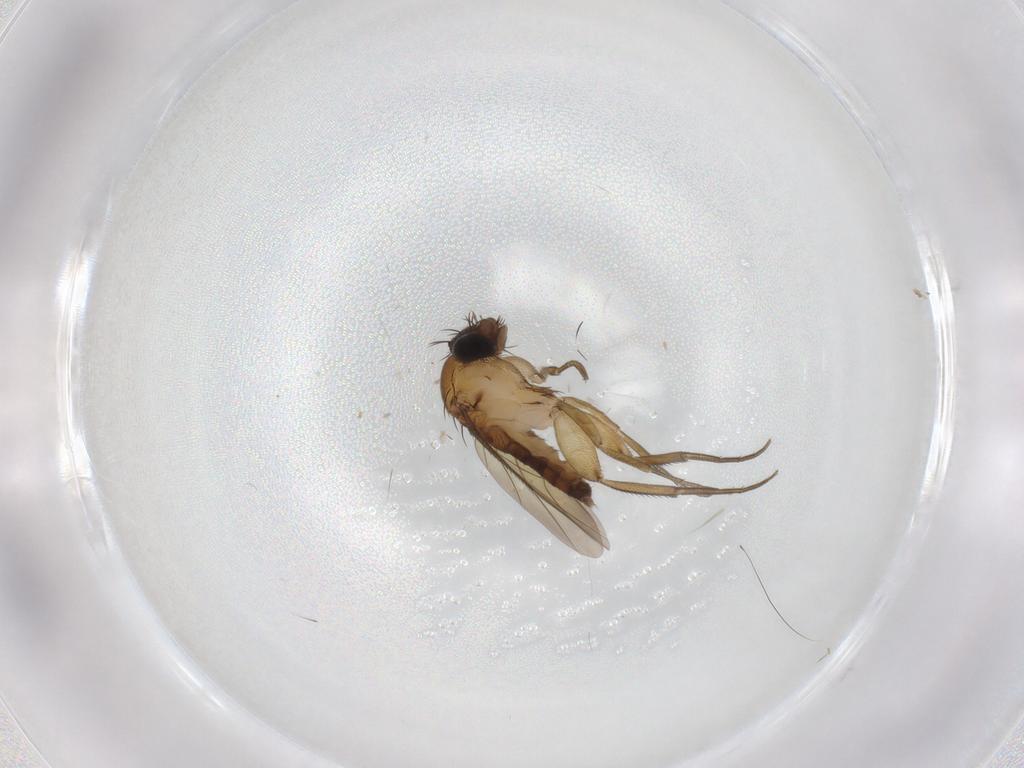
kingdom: Animalia
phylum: Arthropoda
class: Insecta
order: Diptera
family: Phoridae
